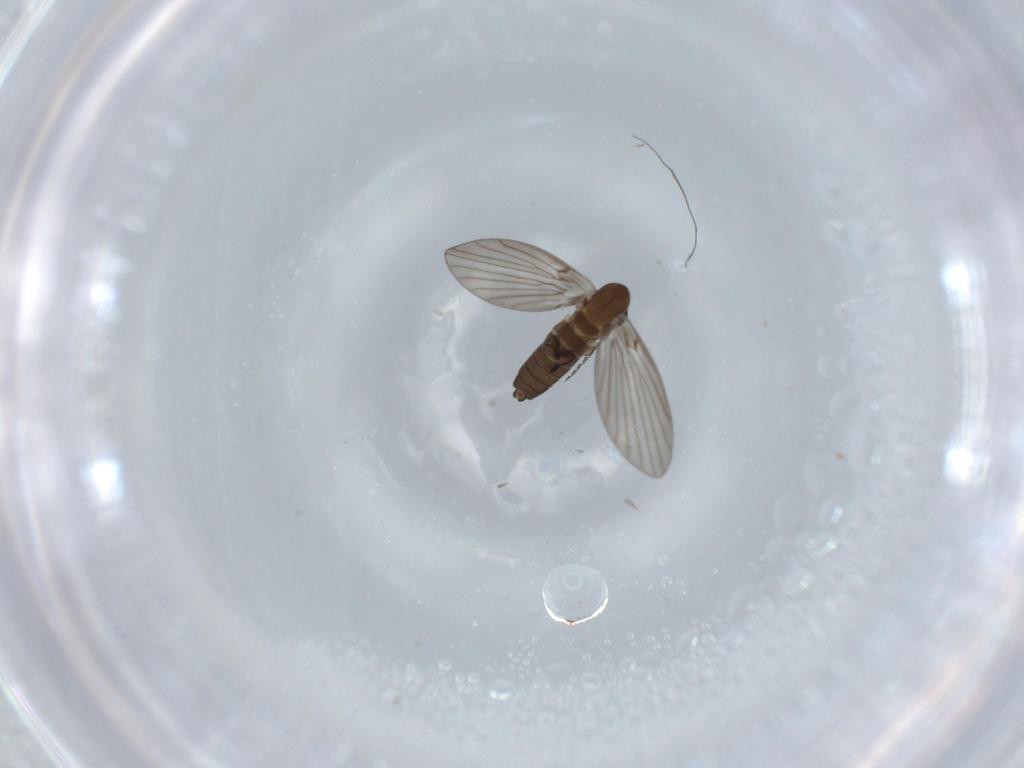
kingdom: Animalia
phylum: Arthropoda
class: Insecta
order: Diptera
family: Psychodidae
